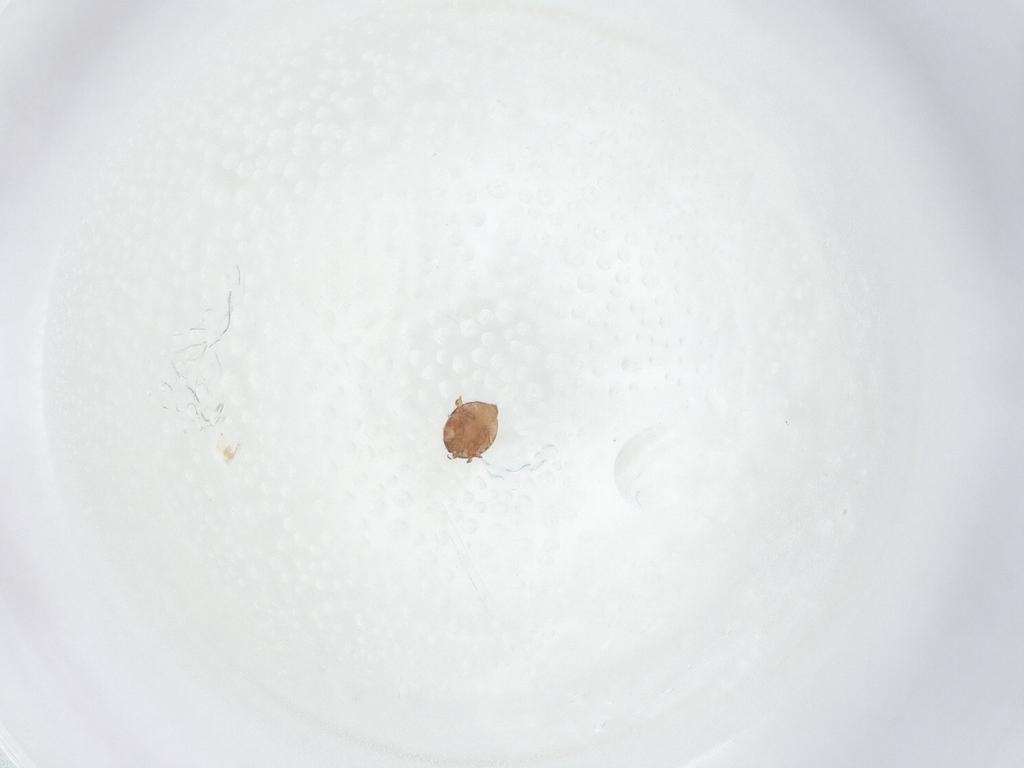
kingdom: Animalia
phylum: Arthropoda
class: Arachnida
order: Mesostigmata
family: Trematuridae
